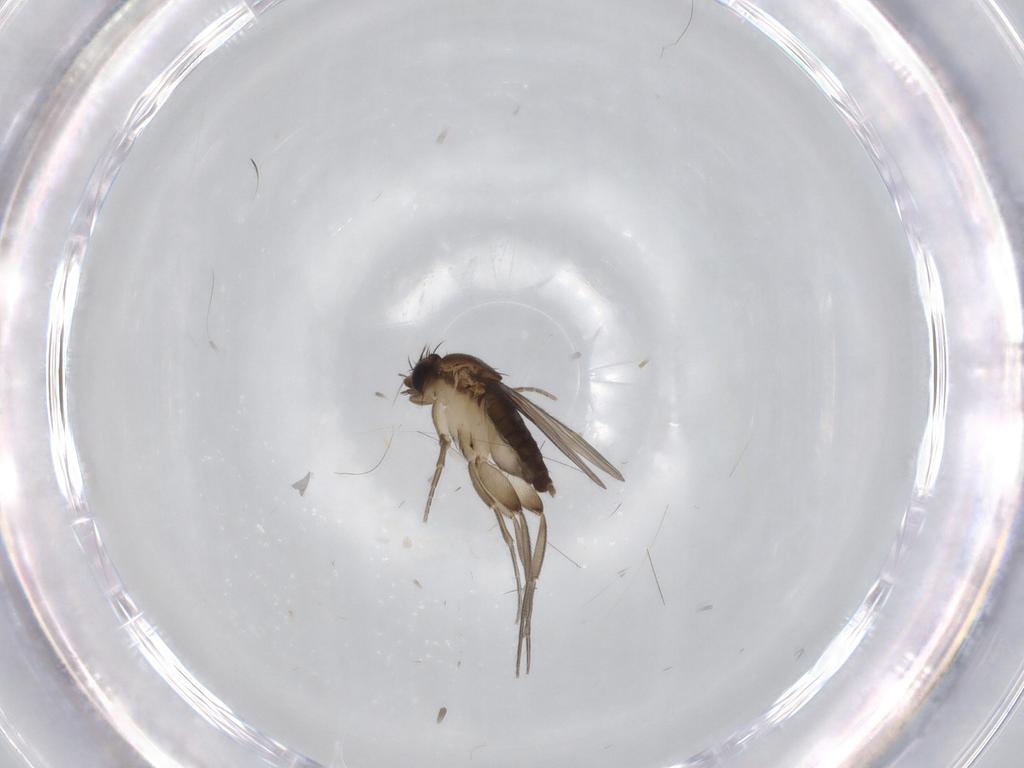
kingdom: Animalia
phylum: Arthropoda
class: Insecta
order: Diptera
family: Phoridae
